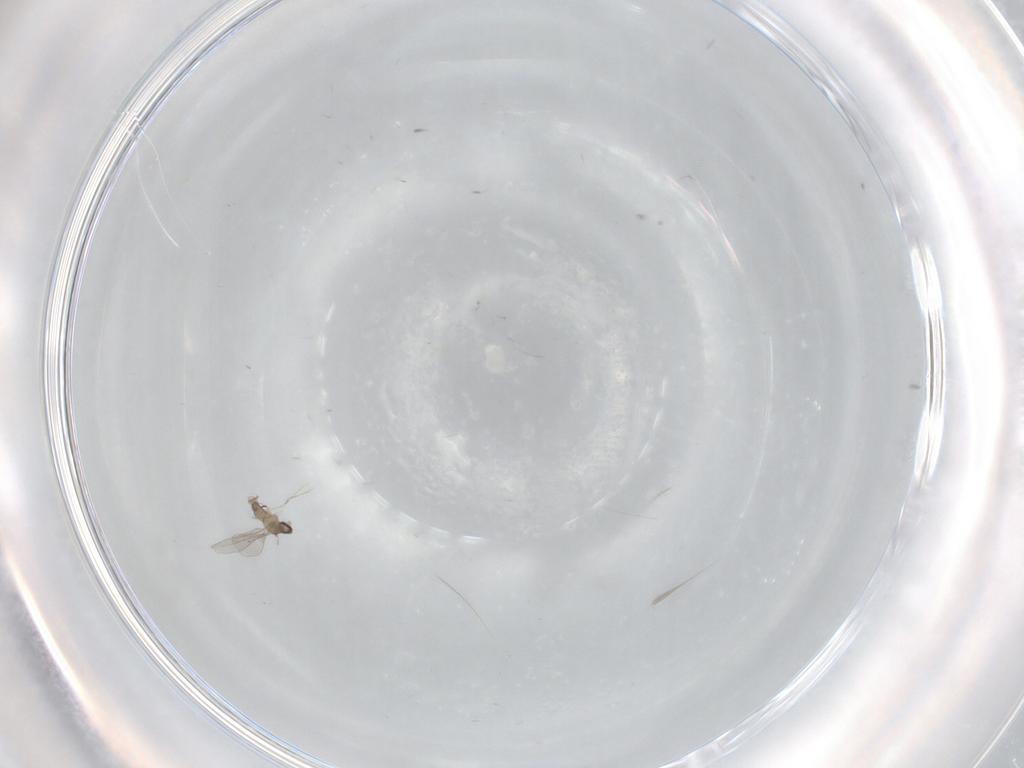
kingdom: Animalia
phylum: Arthropoda
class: Insecta
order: Diptera
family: Cecidomyiidae
